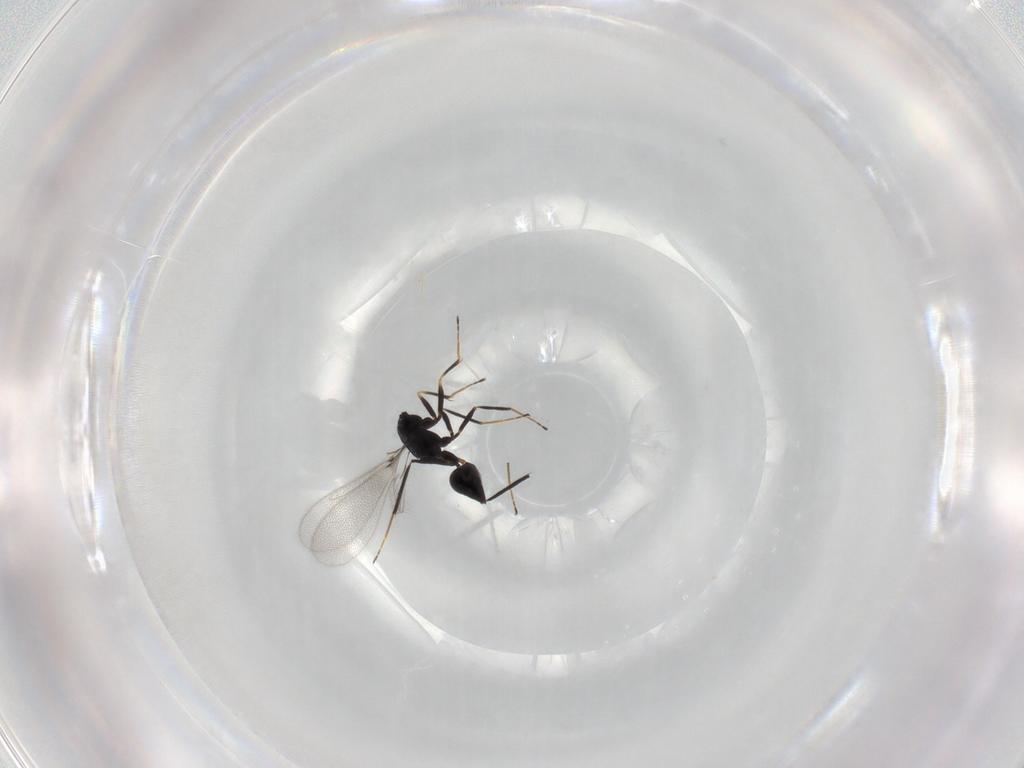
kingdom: Animalia
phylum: Arthropoda
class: Insecta
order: Hymenoptera
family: Mymaridae
